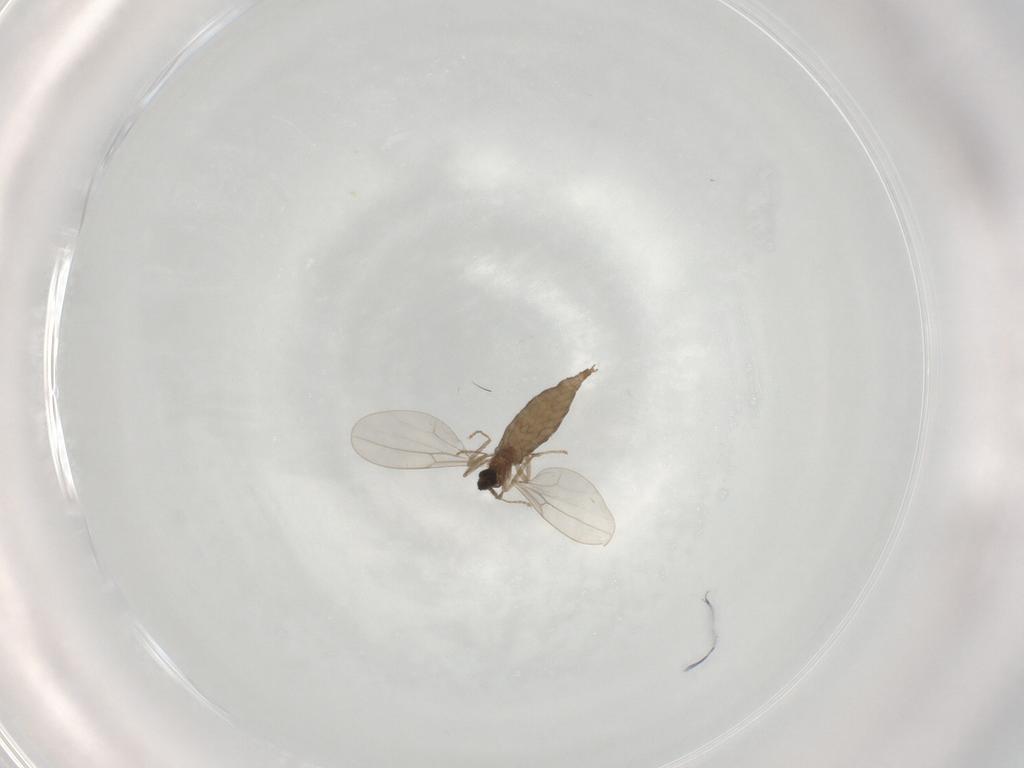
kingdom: Animalia
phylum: Arthropoda
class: Insecta
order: Diptera
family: Cecidomyiidae
